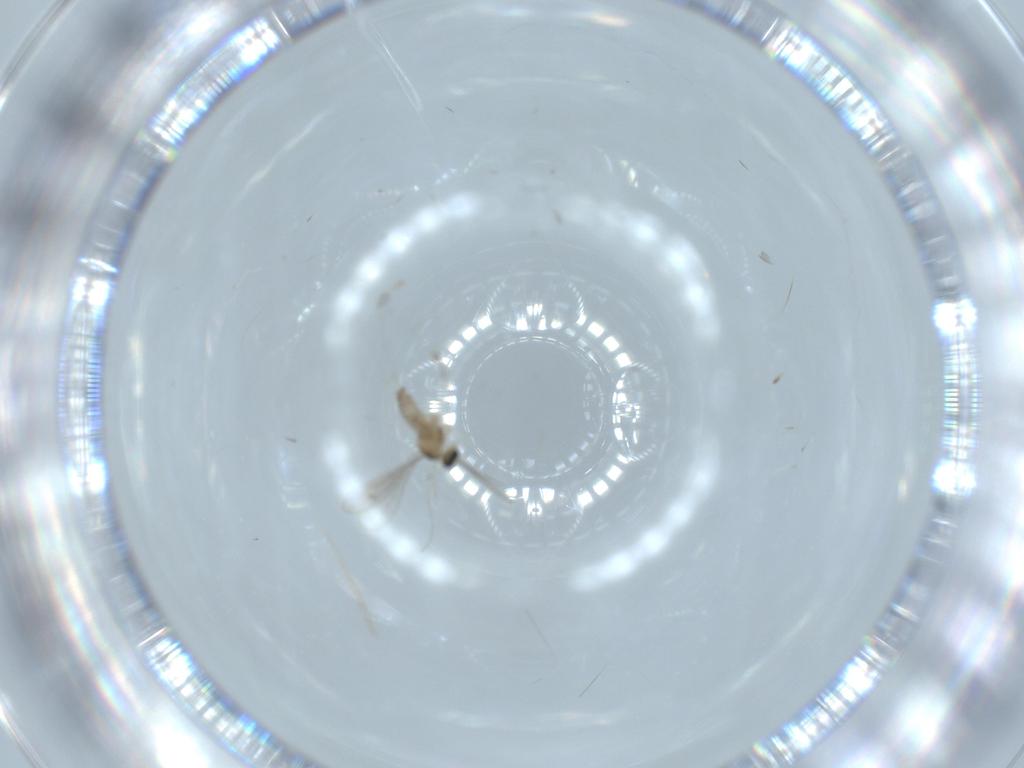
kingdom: Animalia
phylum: Arthropoda
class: Insecta
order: Diptera
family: Cecidomyiidae
